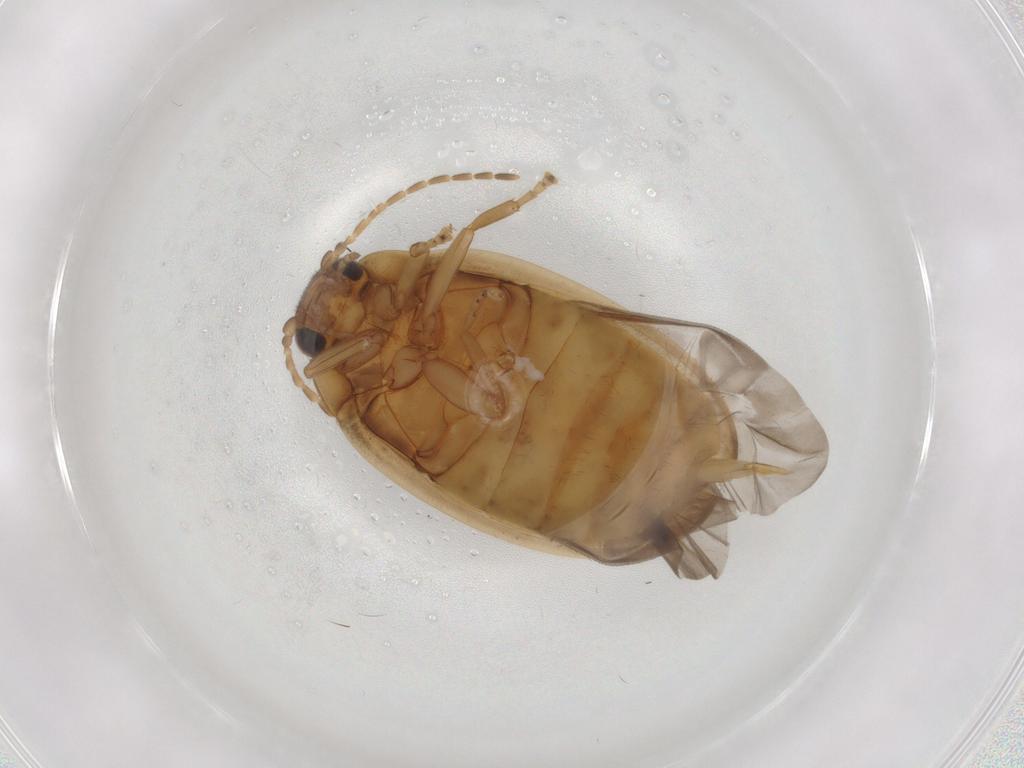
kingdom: Animalia
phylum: Arthropoda
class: Insecta
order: Coleoptera
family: Scirtidae
